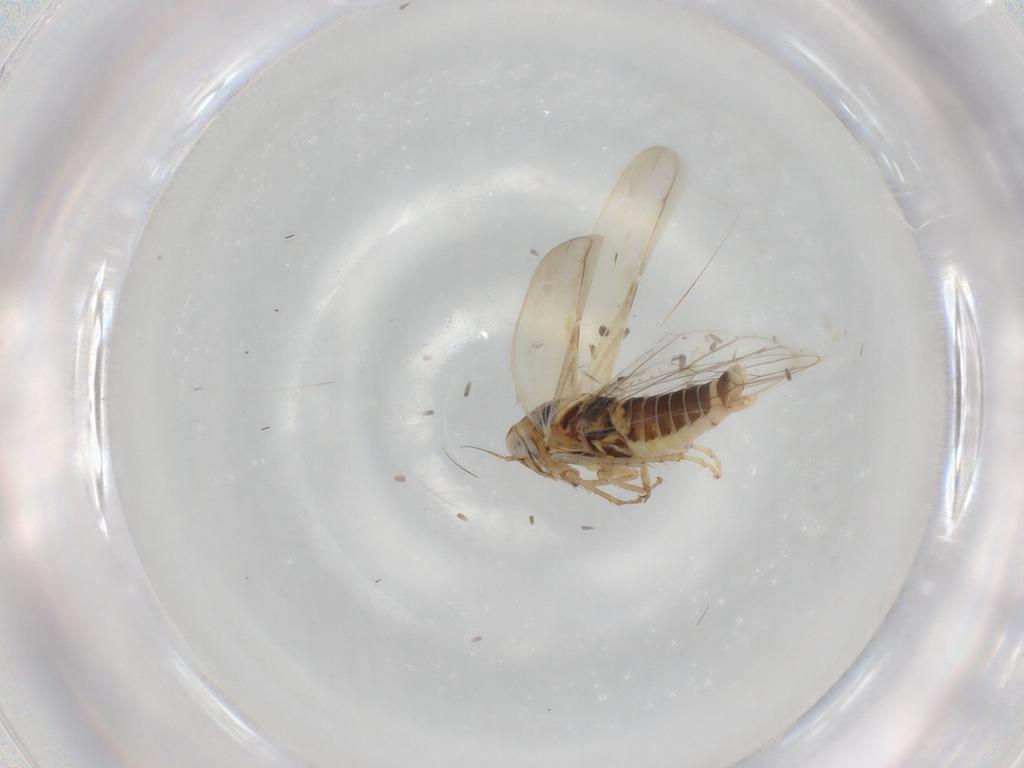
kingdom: Animalia
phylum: Arthropoda
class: Insecta
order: Hemiptera
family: Cicadellidae
